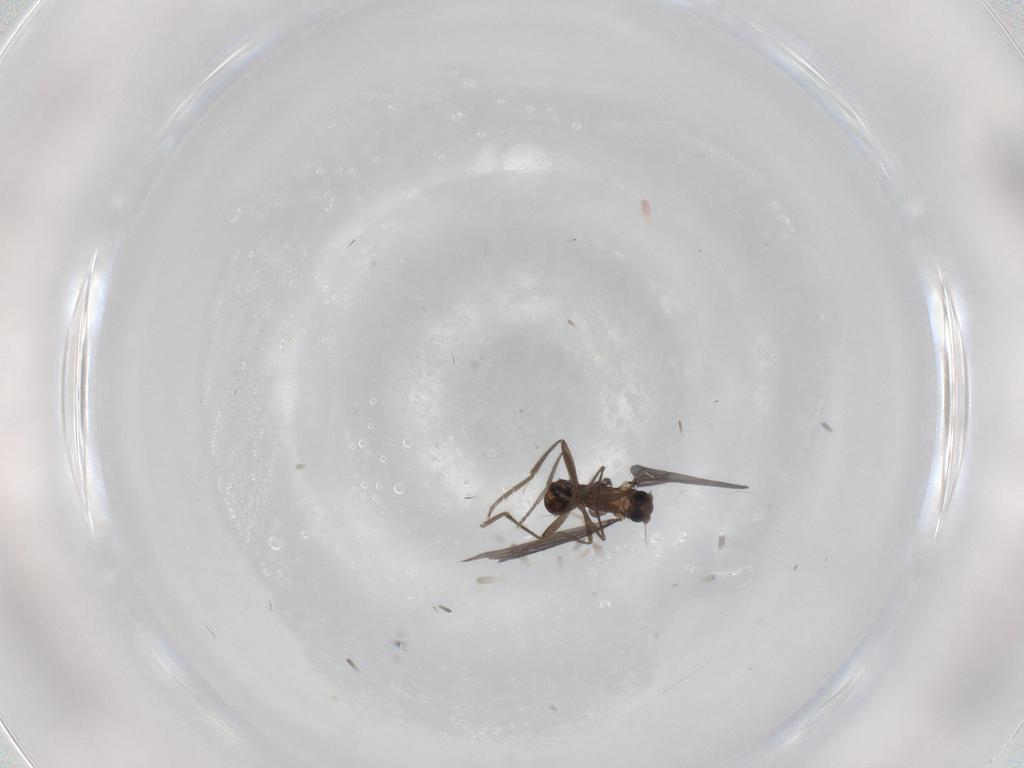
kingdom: Animalia
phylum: Arthropoda
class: Insecta
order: Diptera
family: Phoridae
